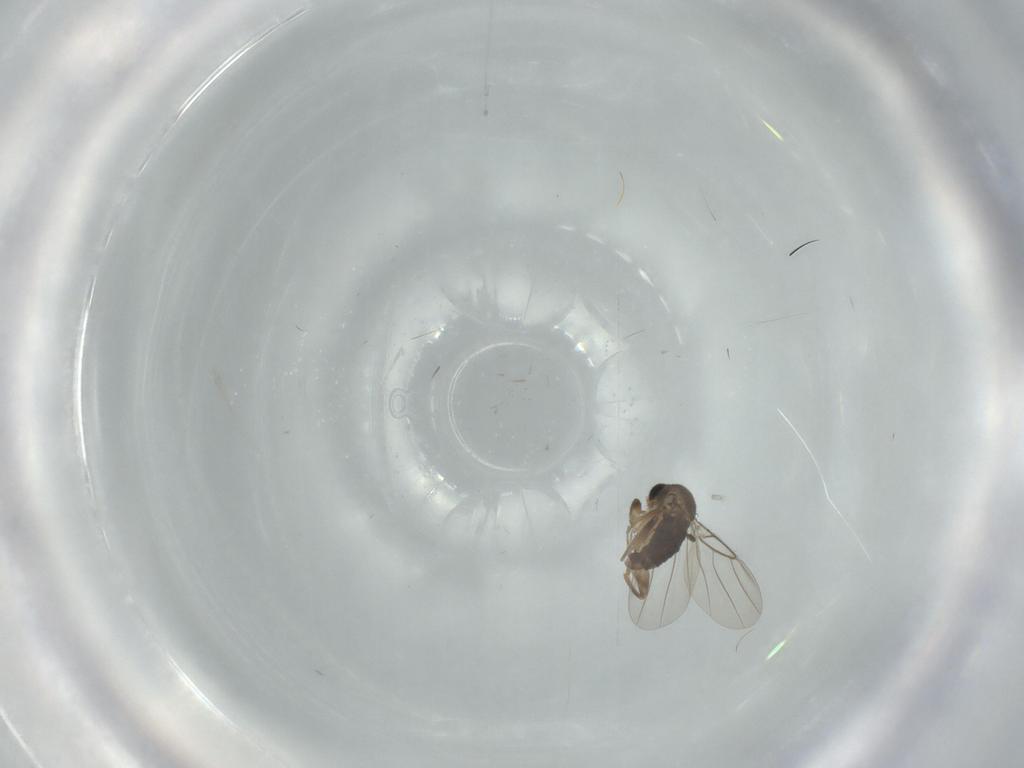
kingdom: Animalia
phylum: Arthropoda
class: Insecta
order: Diptera
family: Phoridae
